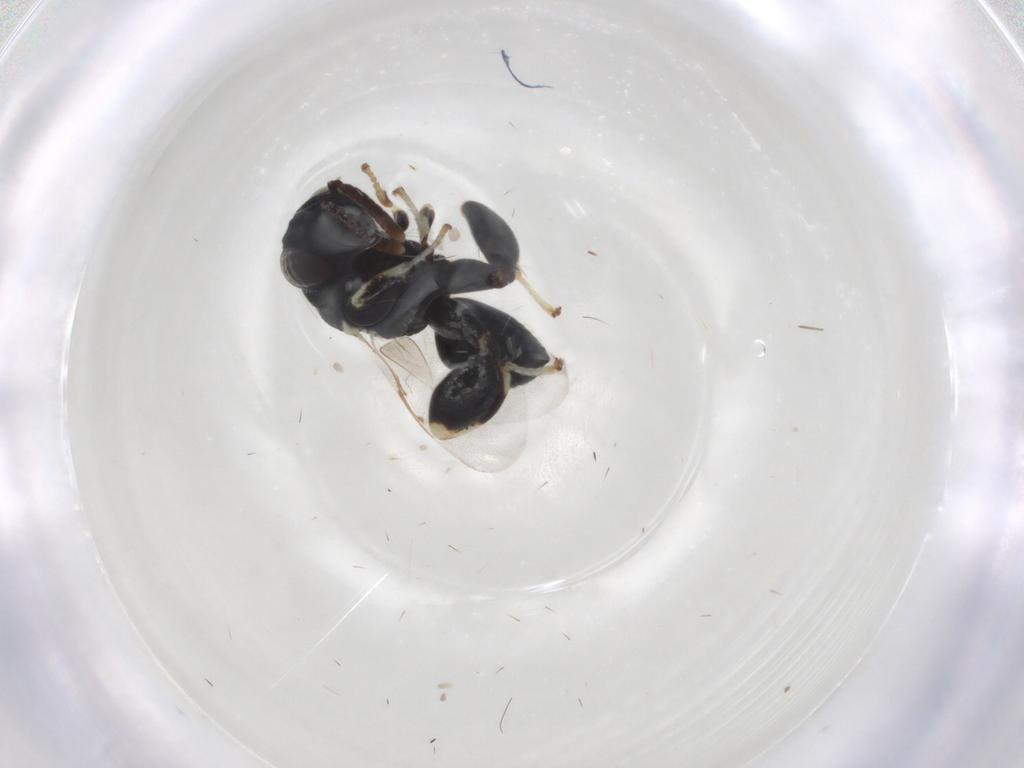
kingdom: Animalia
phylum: Arthropoda
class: Insecta
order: Hymenoptera
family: Chalcididae
